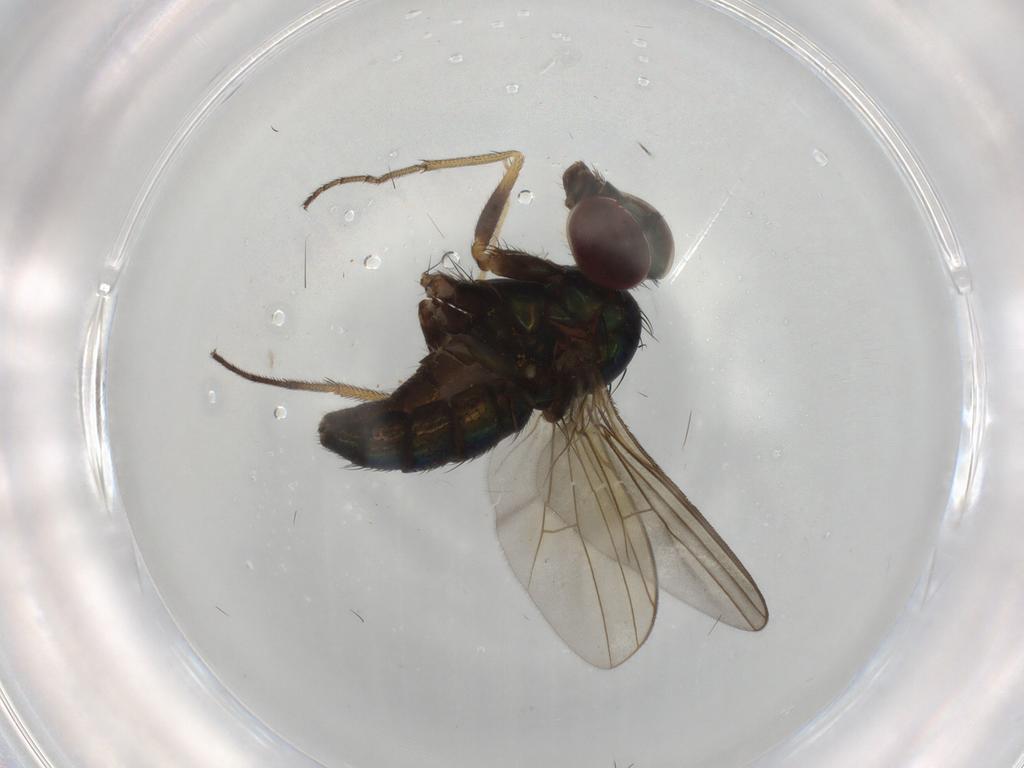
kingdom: Animalia
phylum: Arthropoda
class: Insecta
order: Diptera
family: Dolichopodidae
